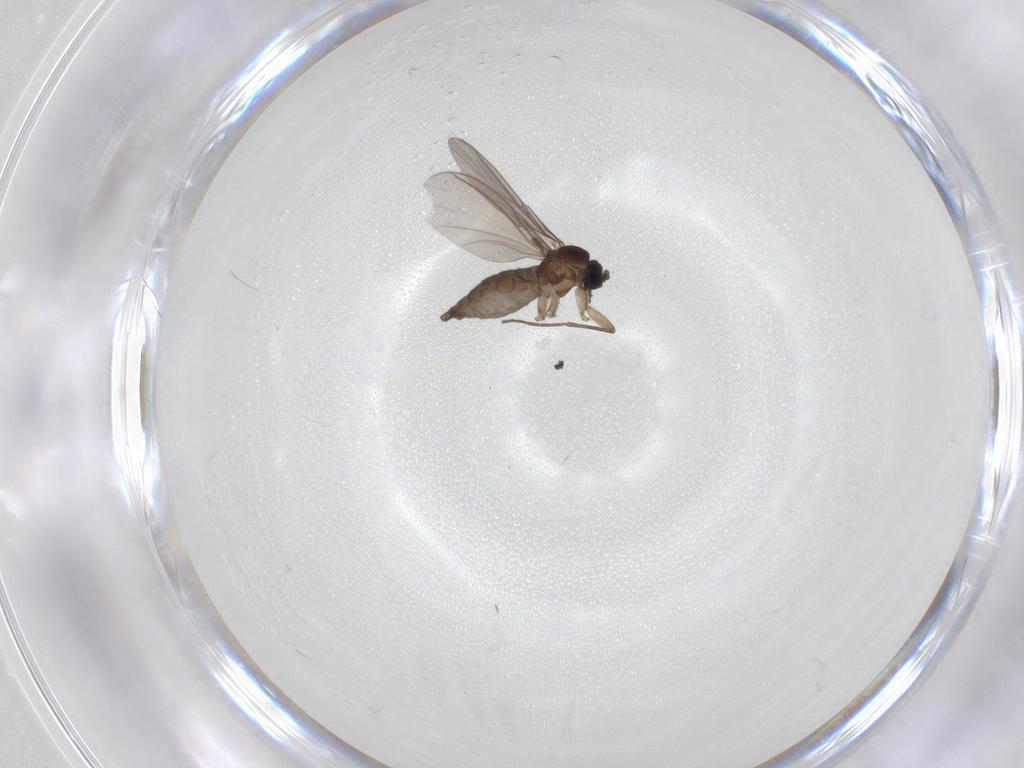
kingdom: Animalia
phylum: Arthropoda
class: Insecta
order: Diptera
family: Sciaridae
